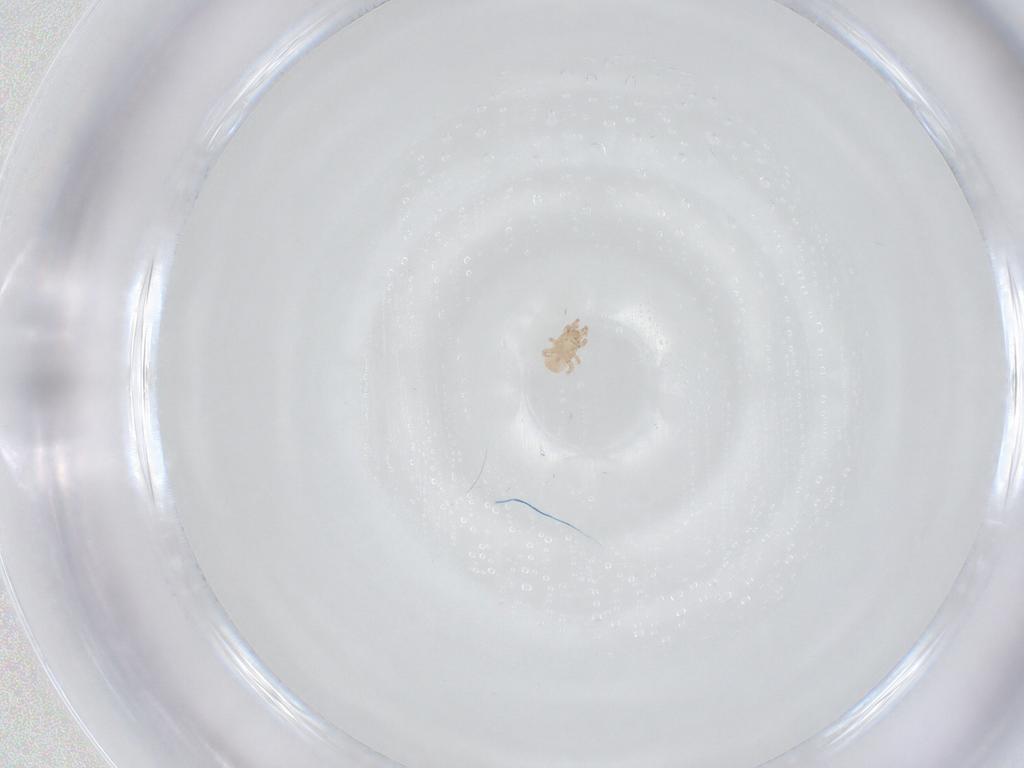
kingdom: Animalia
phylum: Arthropoda
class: Arachnida
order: Mesostigmata
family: Digamasellidae
